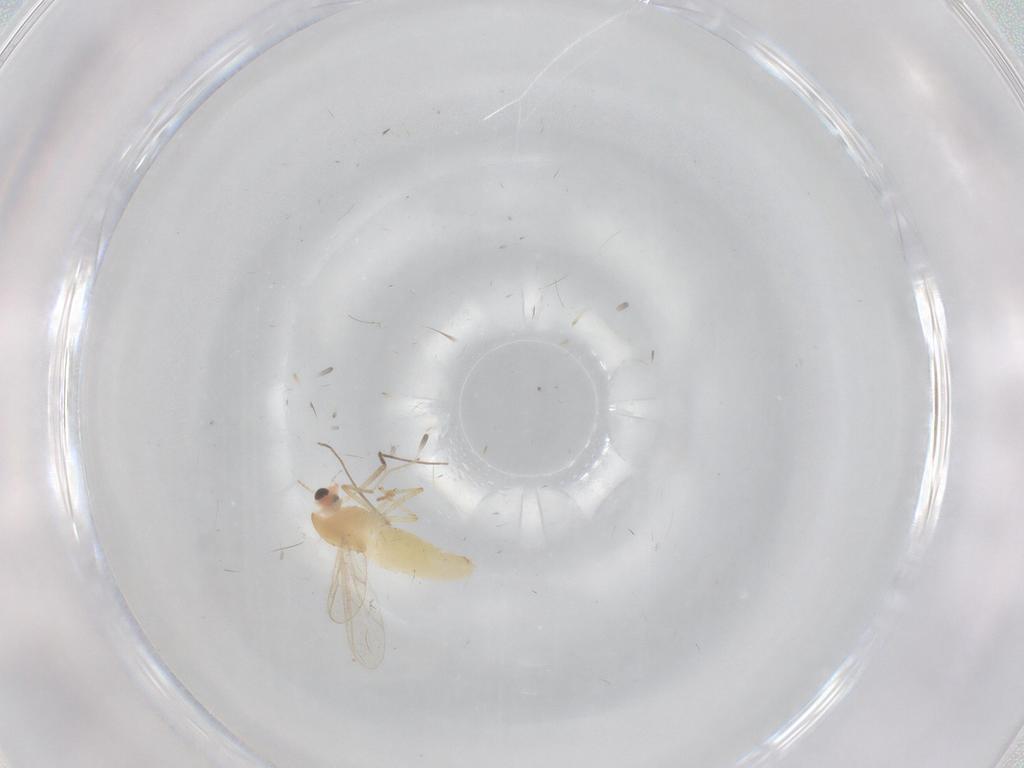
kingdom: Animalia
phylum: Arthropoda
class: Insecta
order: Diptera
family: Chironomidae
